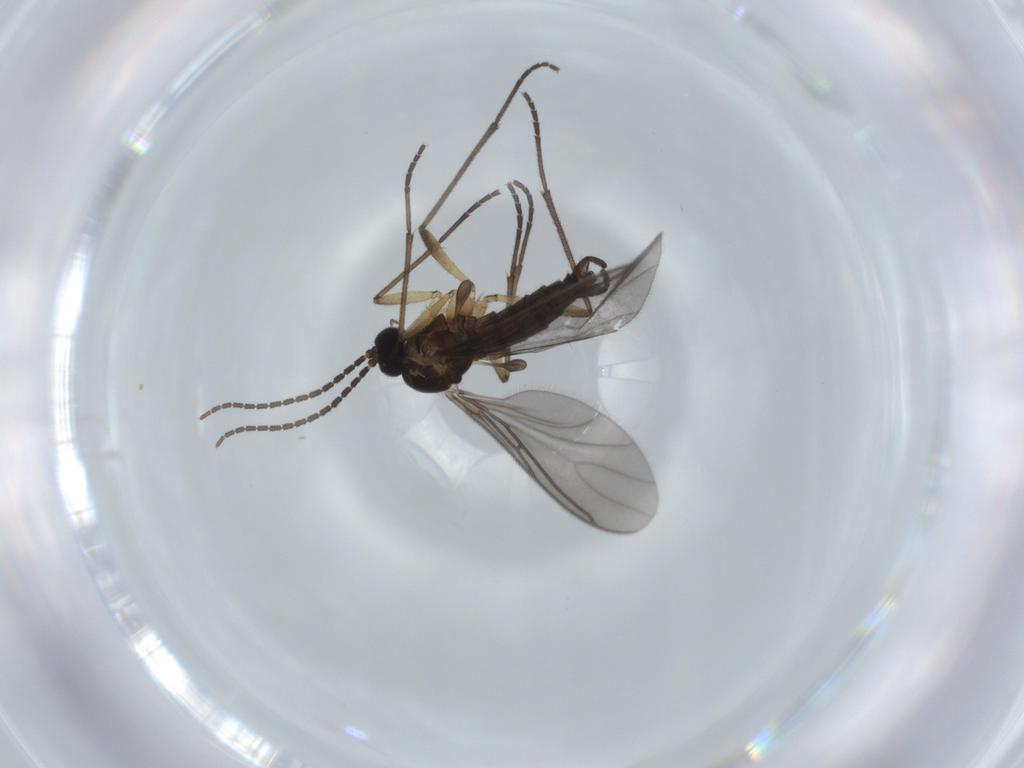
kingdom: Animalia
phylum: Arthropoda
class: Insecta
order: Diptera
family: Sciaridae
